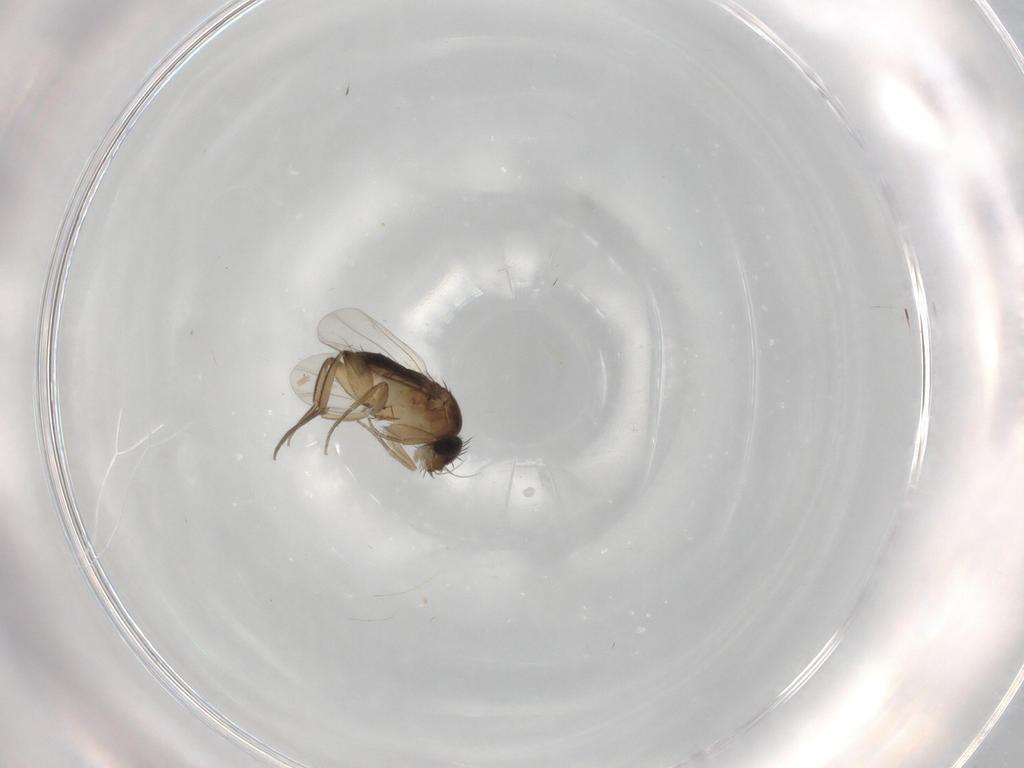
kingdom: Animalia
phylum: Arthropoda
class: Insecta
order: Diptera
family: Phoridae
